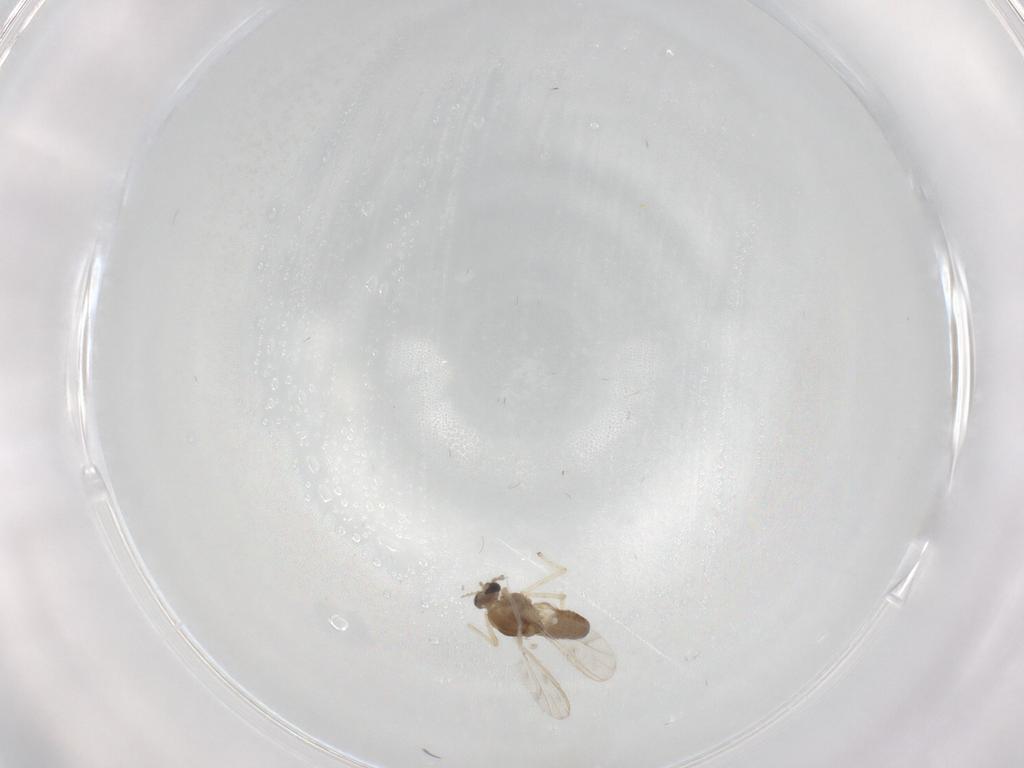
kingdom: Animalia
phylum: Arthropoda
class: Insecta
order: Diptera
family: Chironomidae
